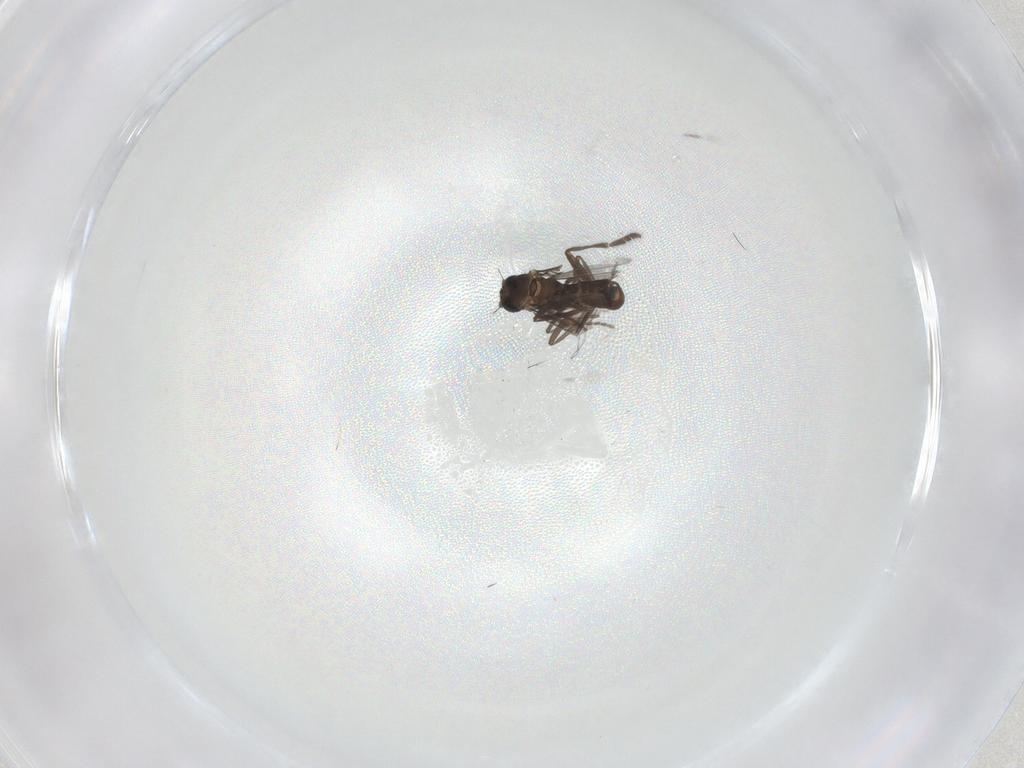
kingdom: Animalia
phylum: Arthropoda
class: Insecta
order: Diptera
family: Phoridae
